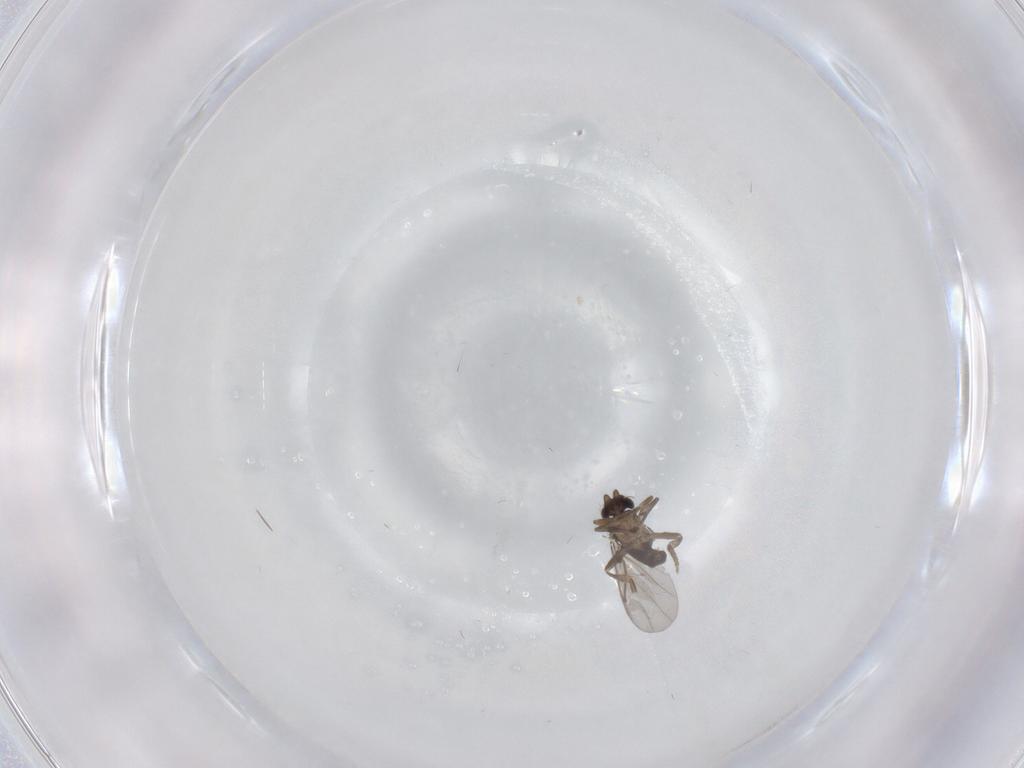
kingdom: Animalia
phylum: Arthropoda
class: Insecta
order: Diptera
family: Phoridae
